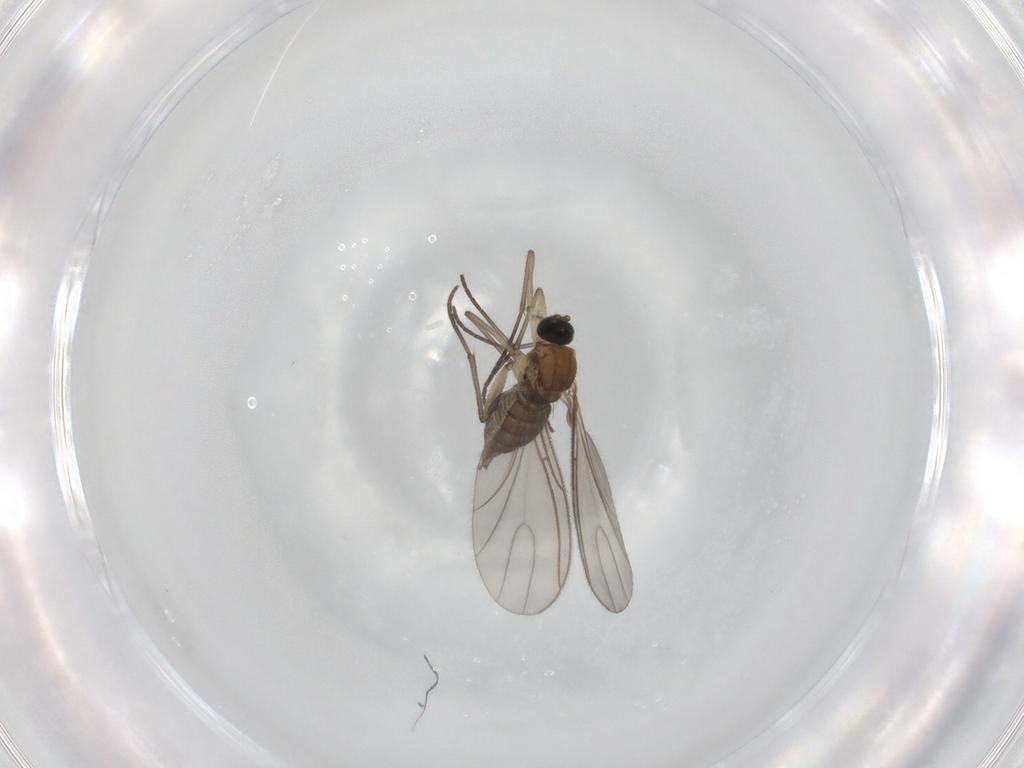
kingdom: Animalia
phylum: Arthropoda
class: Insecta
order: Diptera
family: Sciaridae
